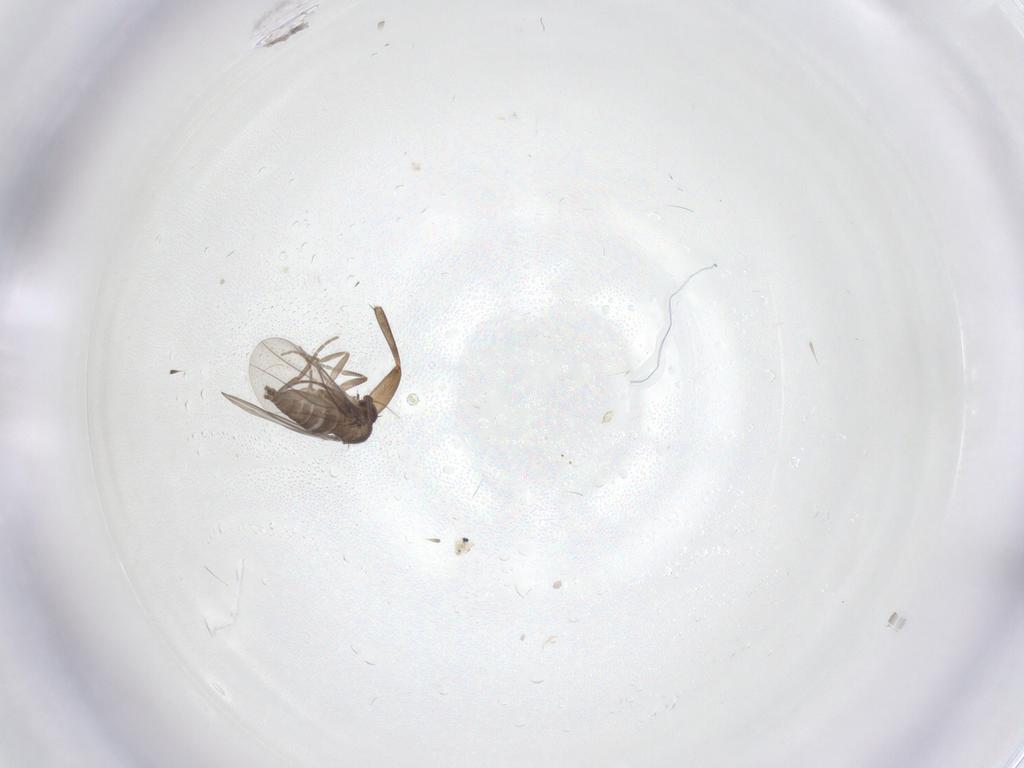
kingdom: Animalia
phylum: Arthropoda
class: Insecta
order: Diptera
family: Phoridae
